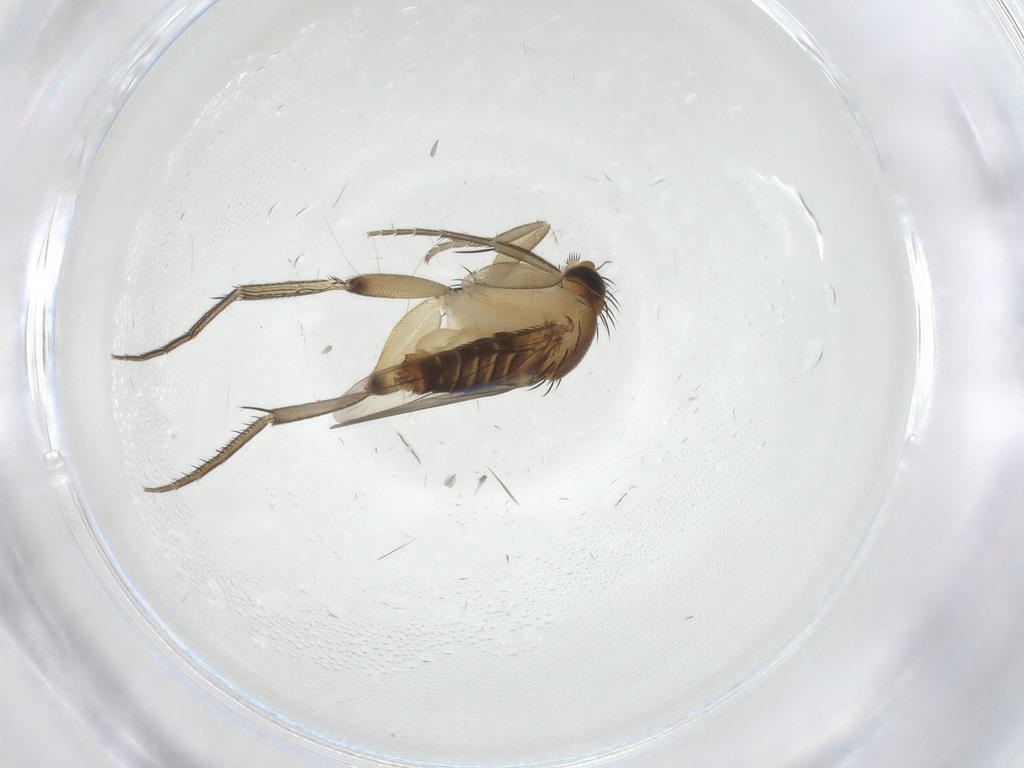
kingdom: Animalia
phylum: Arthropoda
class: Insecta
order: Diptera
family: Phoridae
